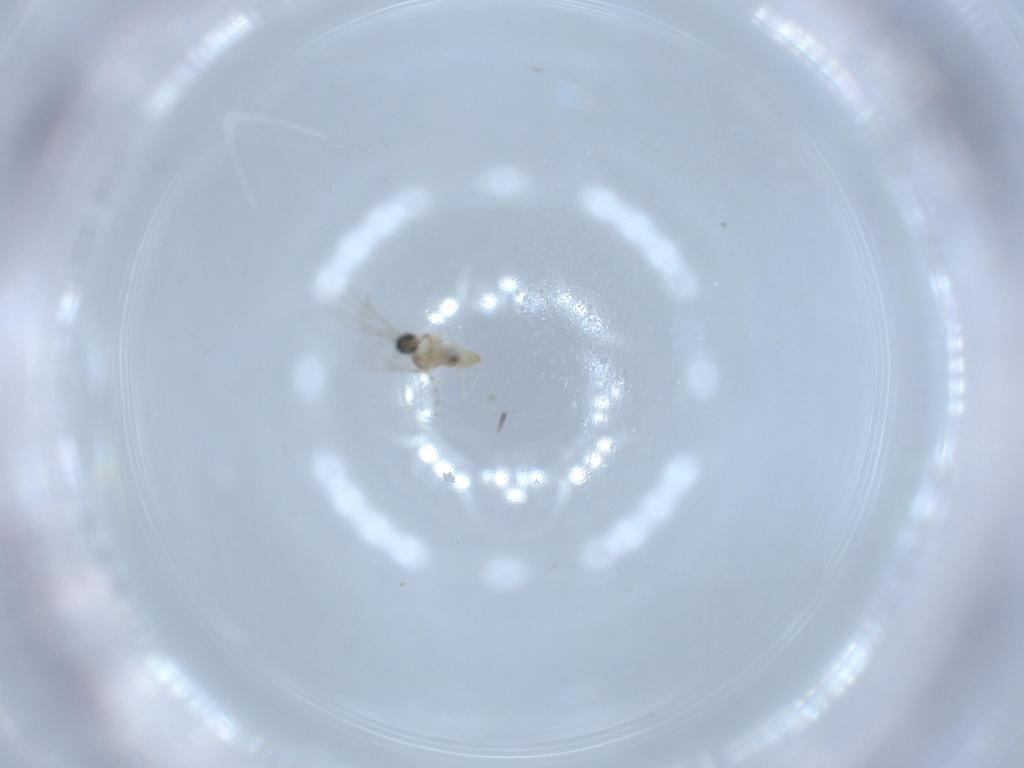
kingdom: Animalia
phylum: Arthropoda
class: Insecta
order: Diptera
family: Cecidomyiidae
